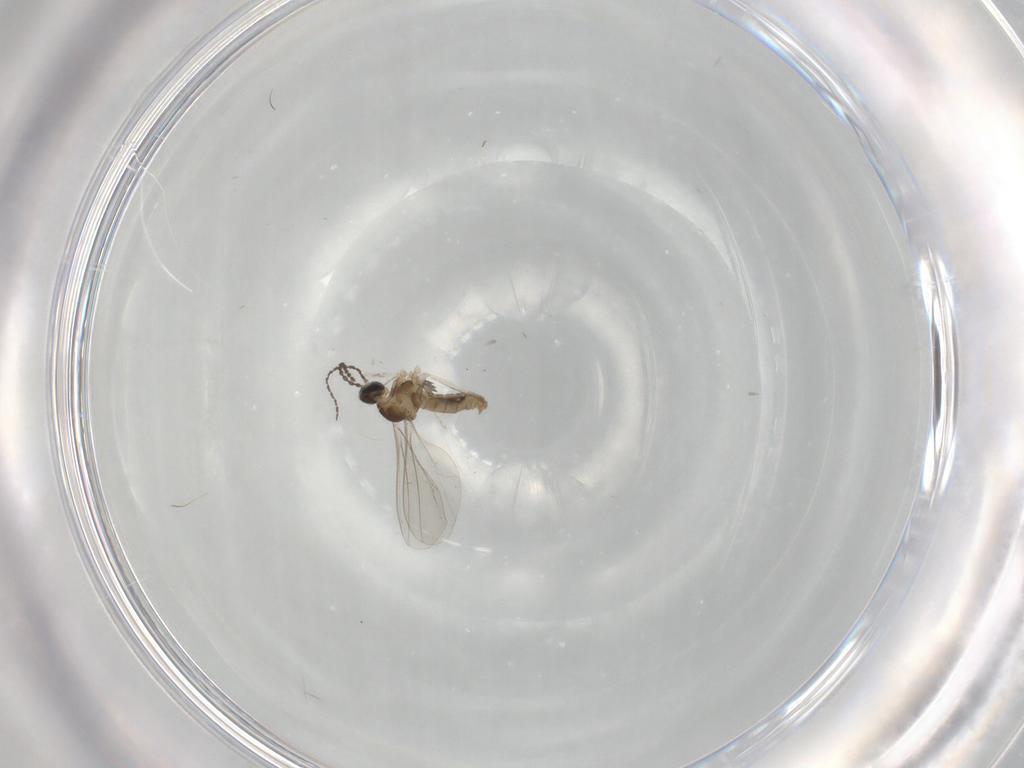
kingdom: Animalia
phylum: Arthropoda
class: Insecta
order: Diptera
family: Cecidomyiidae
